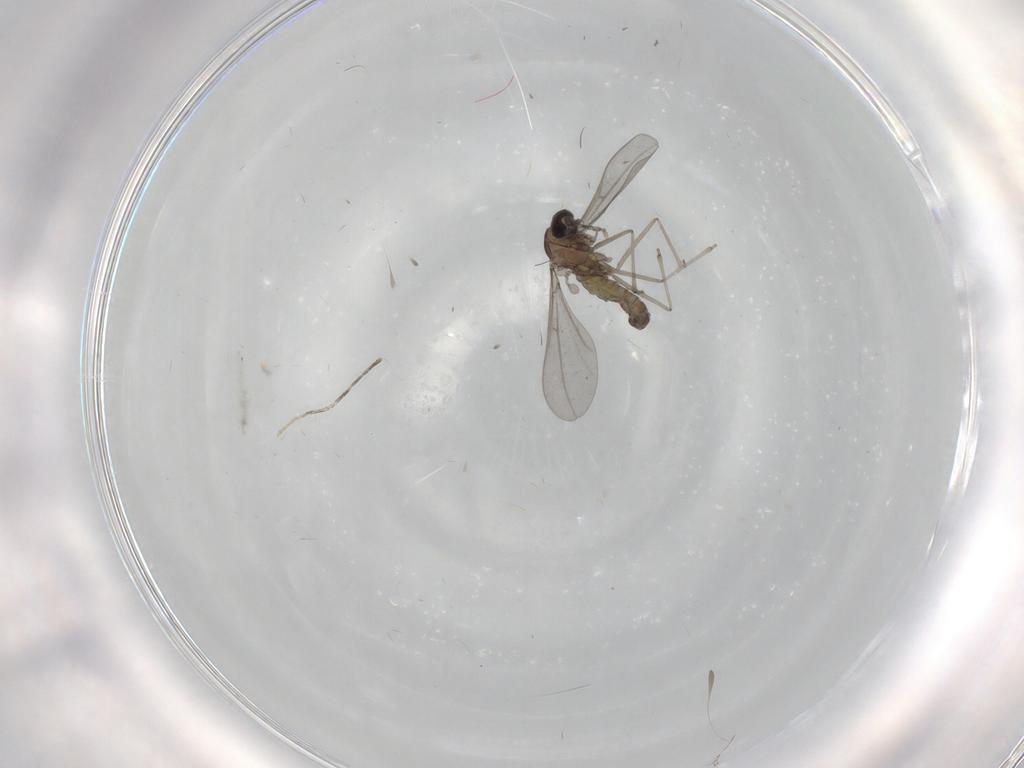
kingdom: Animalia
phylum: Arthropoda
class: Insecta
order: Diptera
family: Cecidomyiidae
